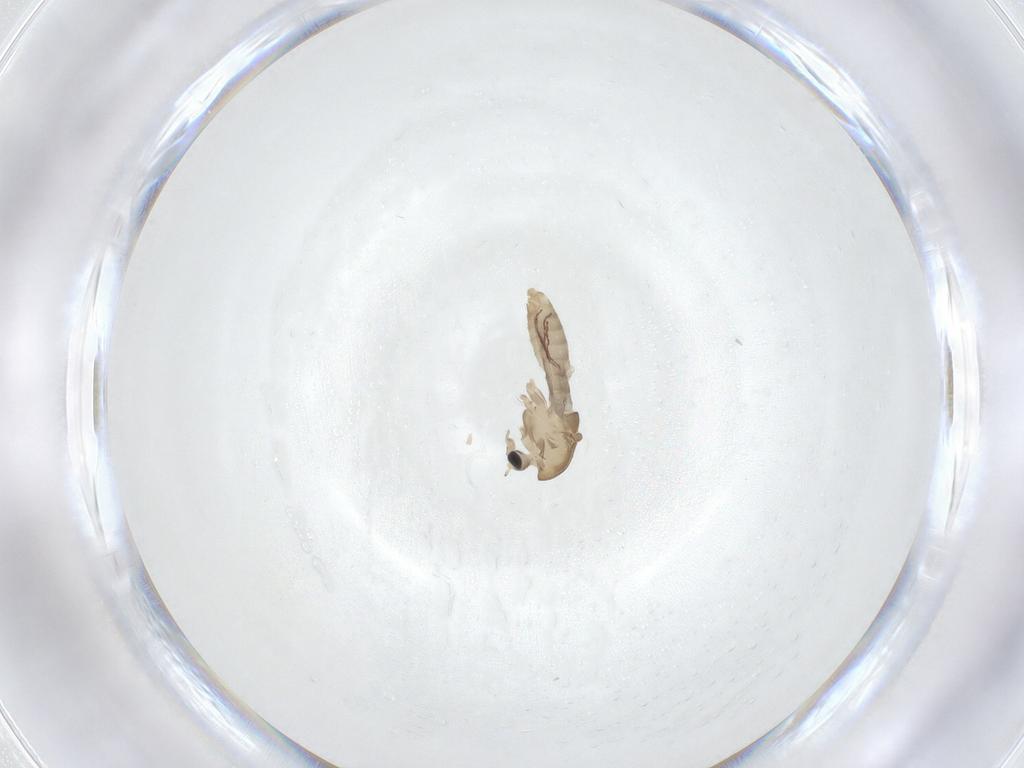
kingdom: Animalia
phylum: Arthropoda
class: Insecta
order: Diptera
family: Chironomidae
